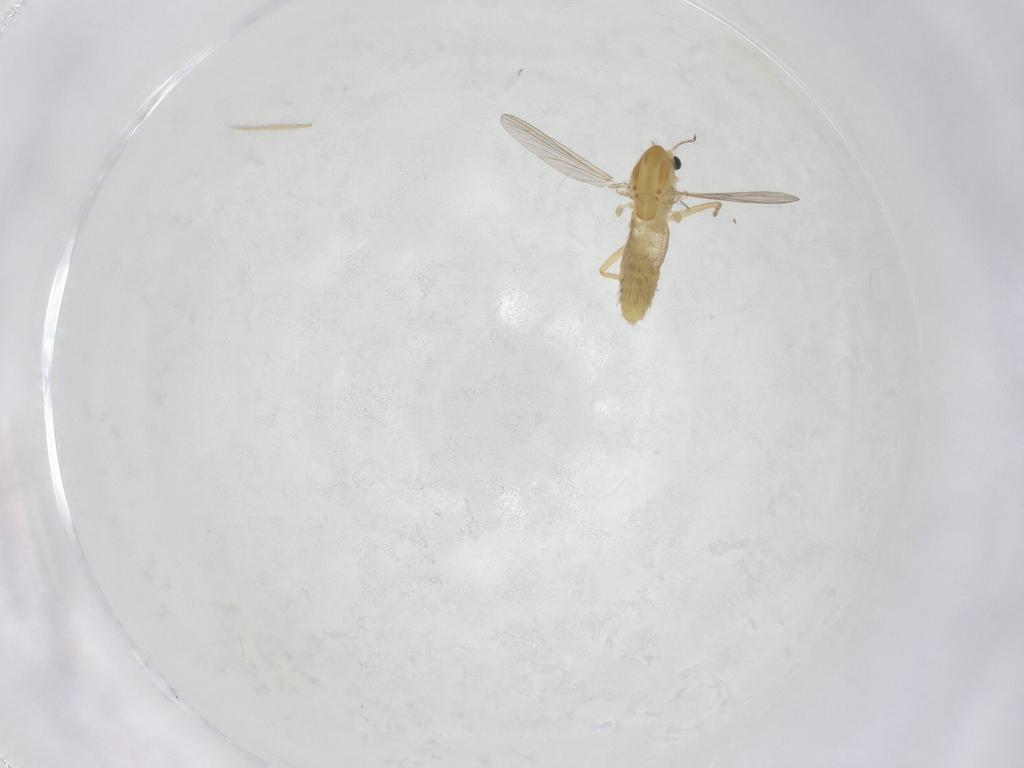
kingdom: Animalia
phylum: Arthropoda
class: Insecta
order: Diptera
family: Chironomidae
